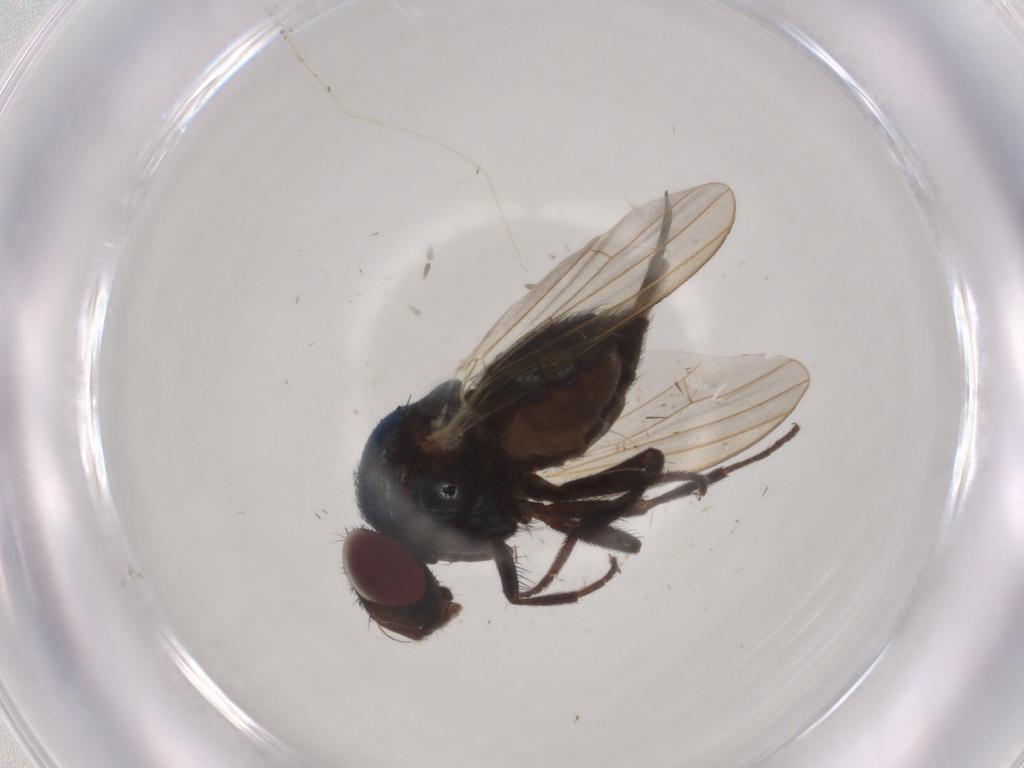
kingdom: Animalia
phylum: Arthropoda
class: Insecta
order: Diptera
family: Lonchaeidae
